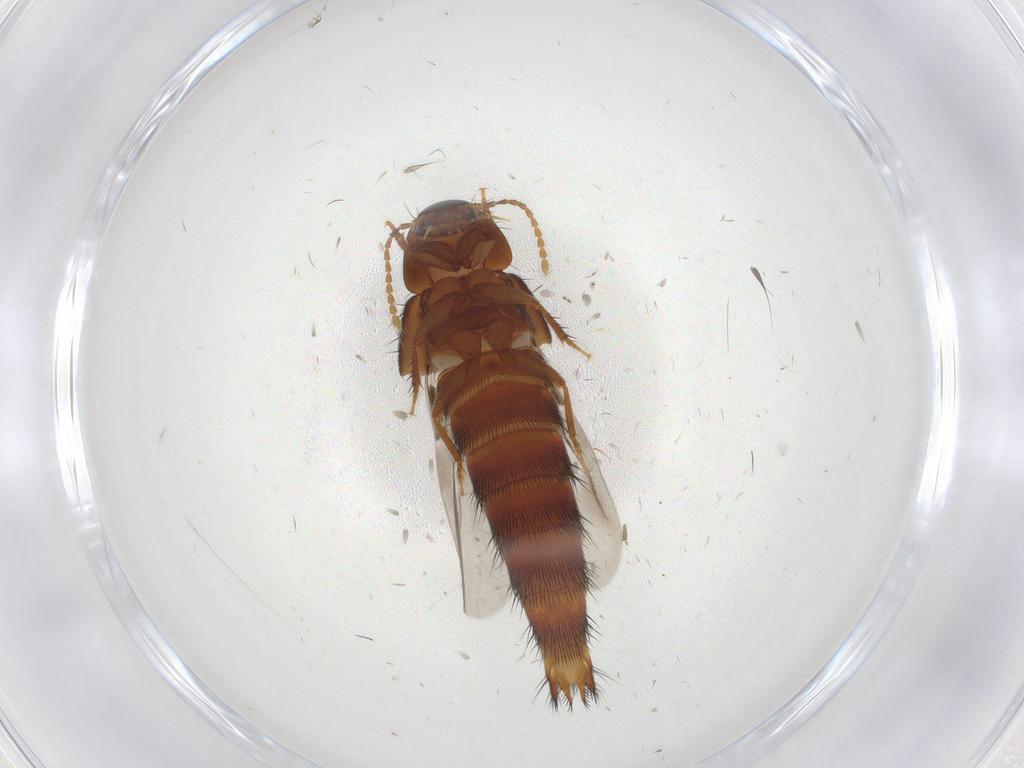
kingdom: Animalia
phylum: Arthropoda
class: Insecta
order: Coleoptera
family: Staphylinidae
